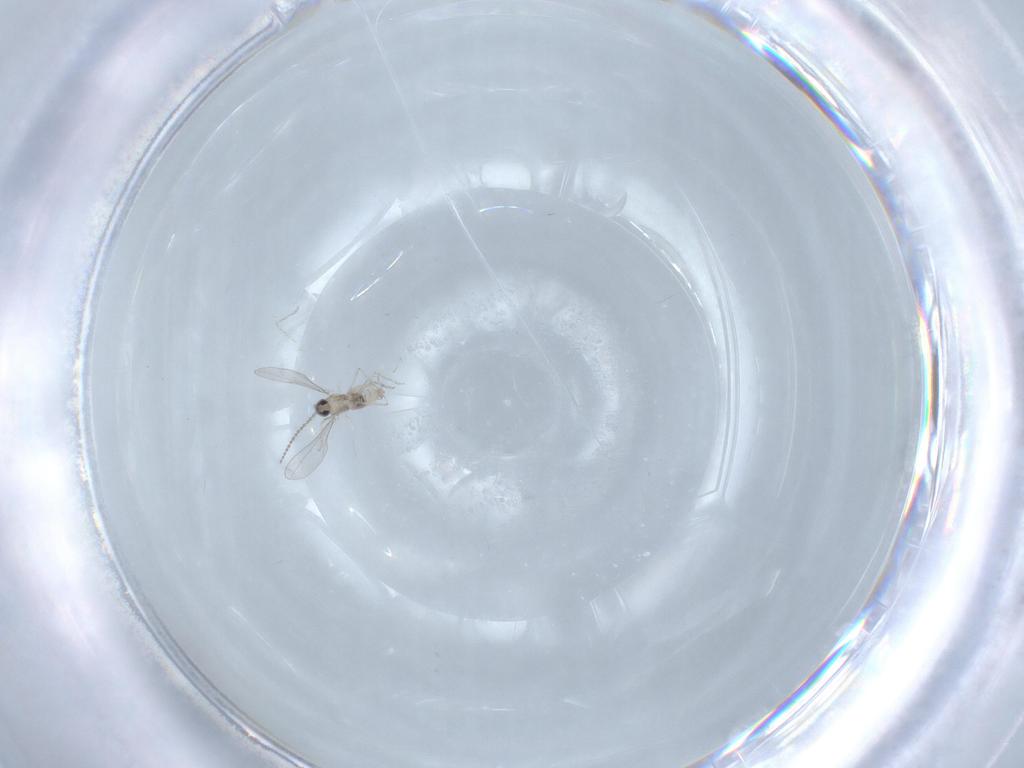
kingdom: Animalia
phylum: Arthropoda
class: Insecta
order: Diptera
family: Cecidomyiidae
